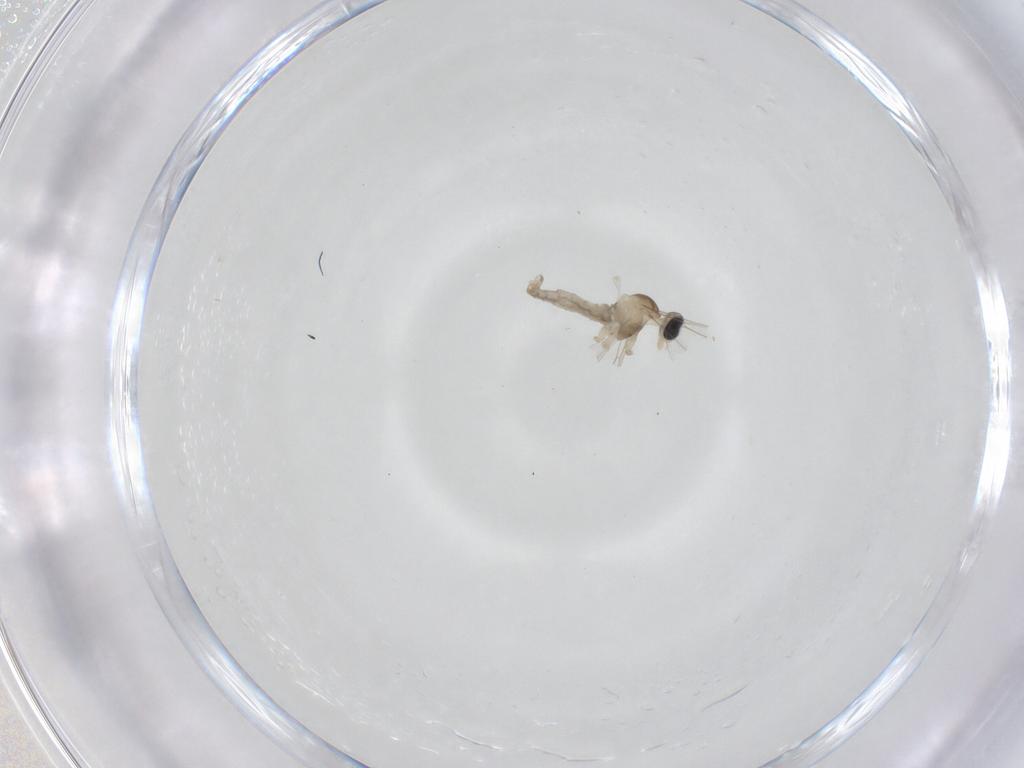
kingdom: Animalia
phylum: Arthropoda
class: Insecta
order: Diptera
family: Cecidomyiidae
